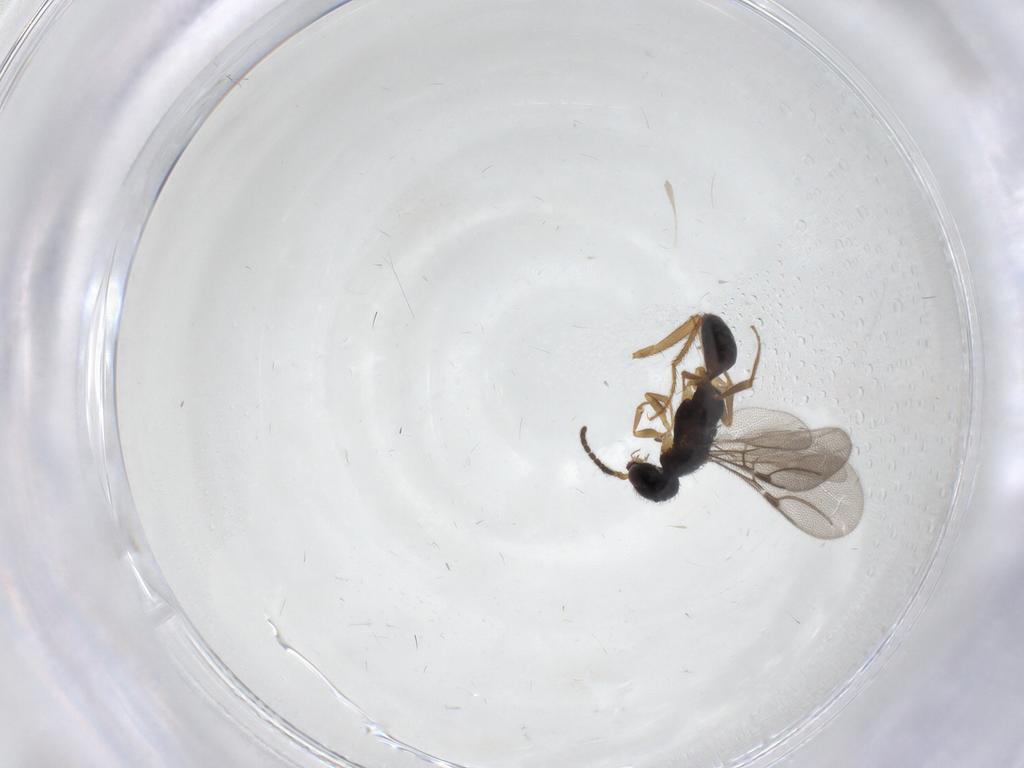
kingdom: Animalia
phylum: Arthropoda
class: Insecta
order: Hymenoptera
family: Bethylidae
